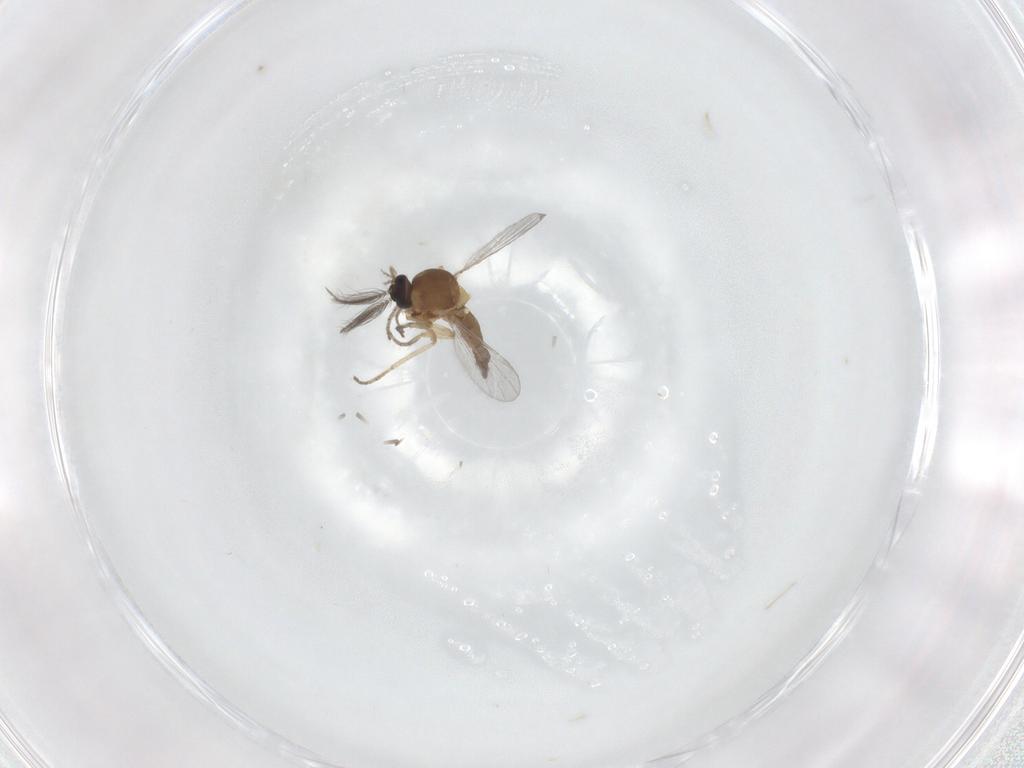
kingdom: Animalia
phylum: Arthropoda
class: Insecta
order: Diptera
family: Ceratopogonidae
